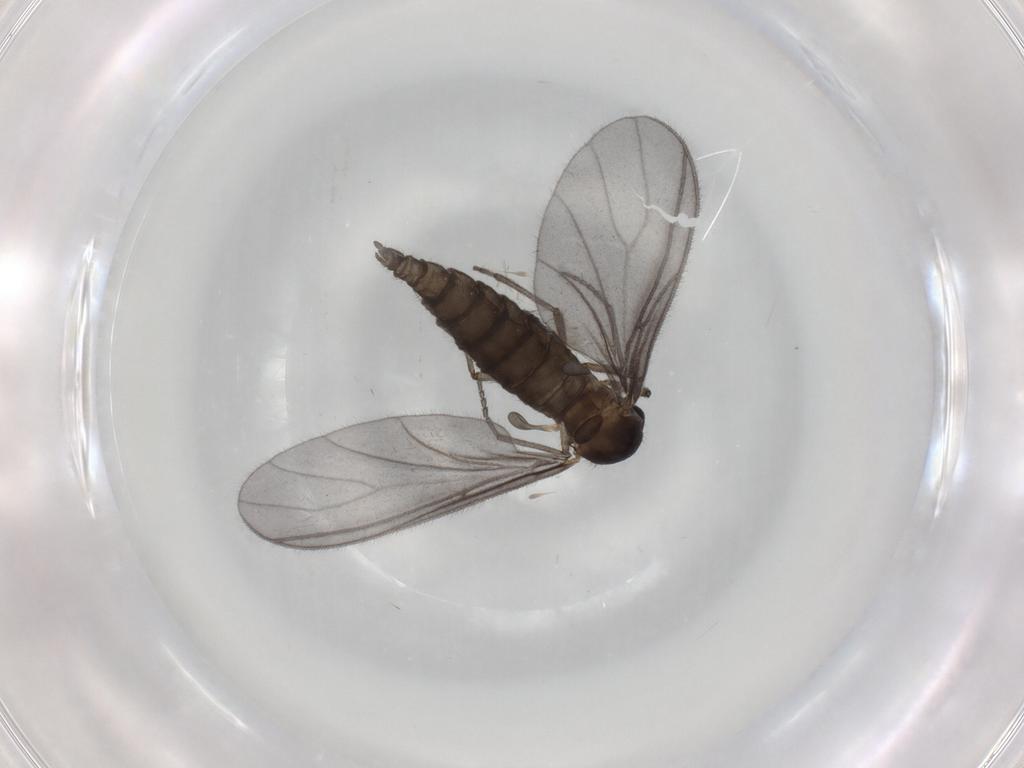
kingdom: Animalia
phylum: Arthropoda
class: Insecta
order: Diptera
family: Sciaridae
